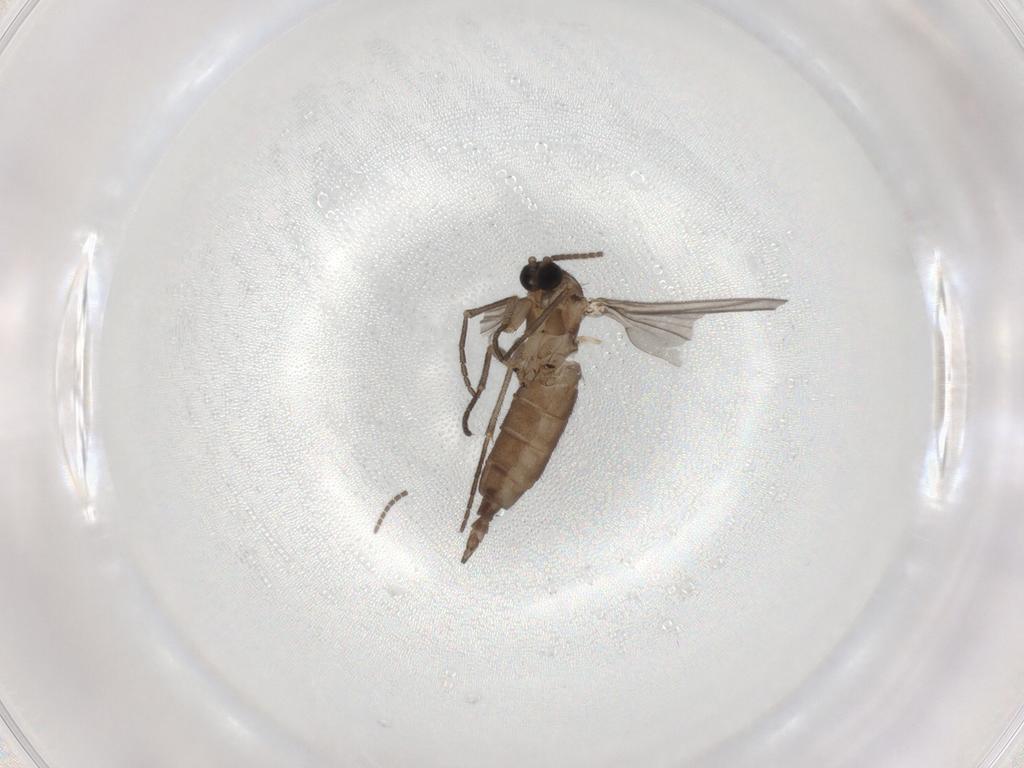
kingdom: Animalia
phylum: Arthropoda
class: Insecta
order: Diptera
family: Sciaridae
